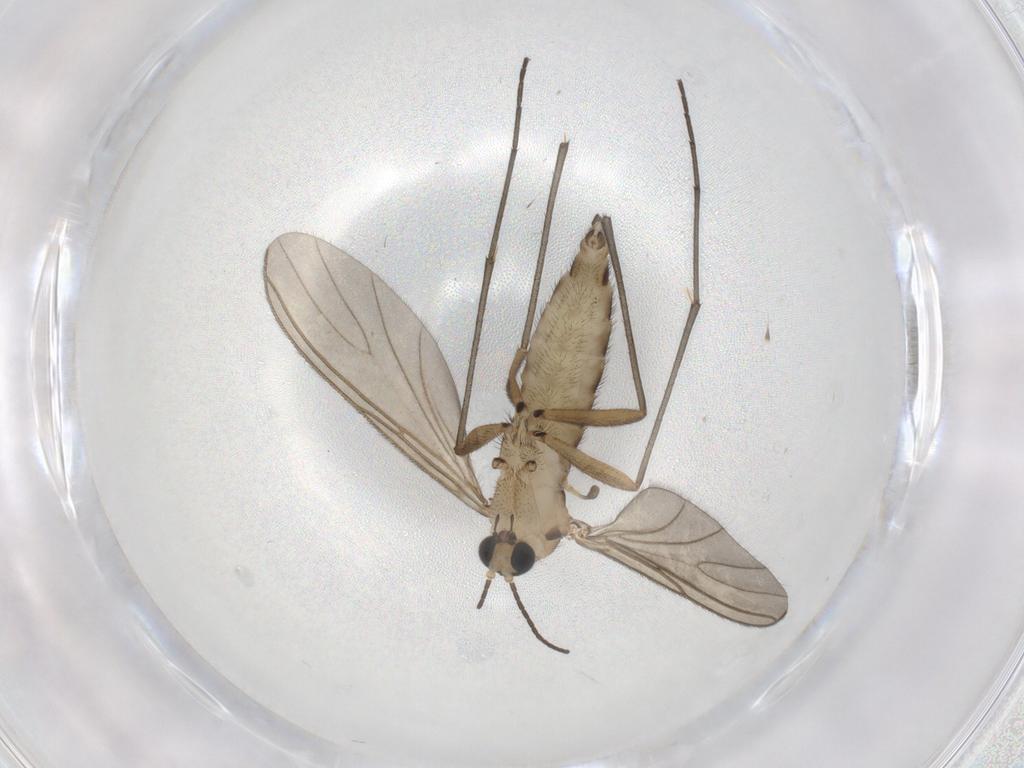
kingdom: Animalia
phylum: Arthropoda
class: Insecta
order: Diptera
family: Sciaridae
